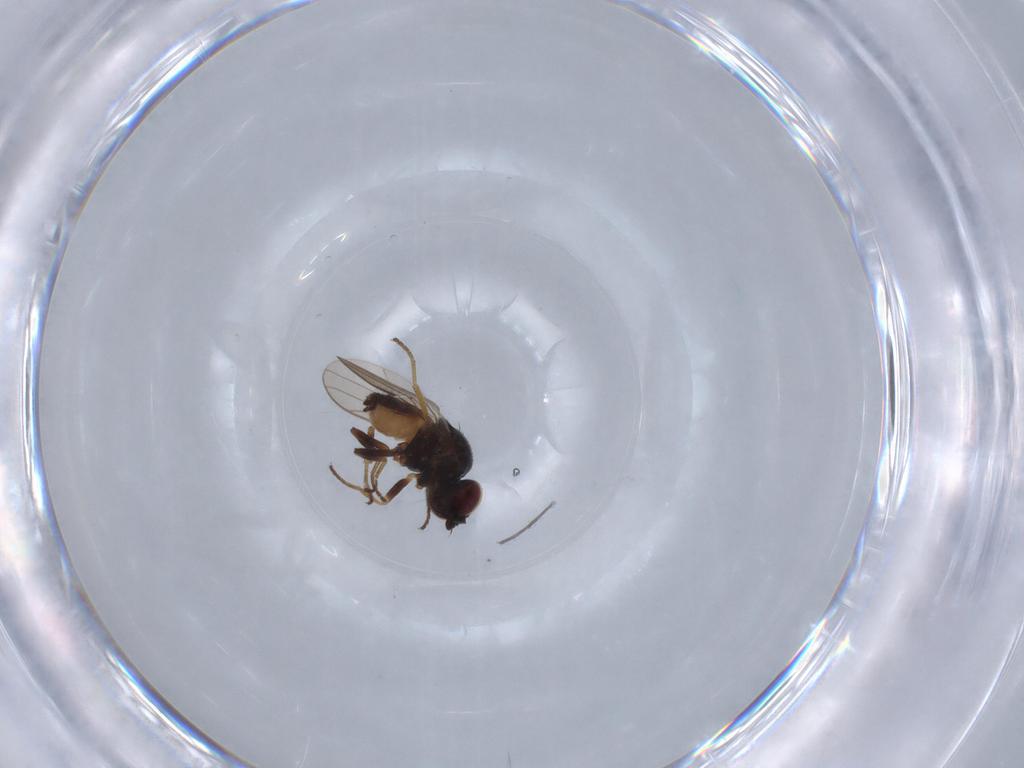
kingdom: Animalia
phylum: Arthropoda
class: Insecta
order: Diptera
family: Chloropidae
